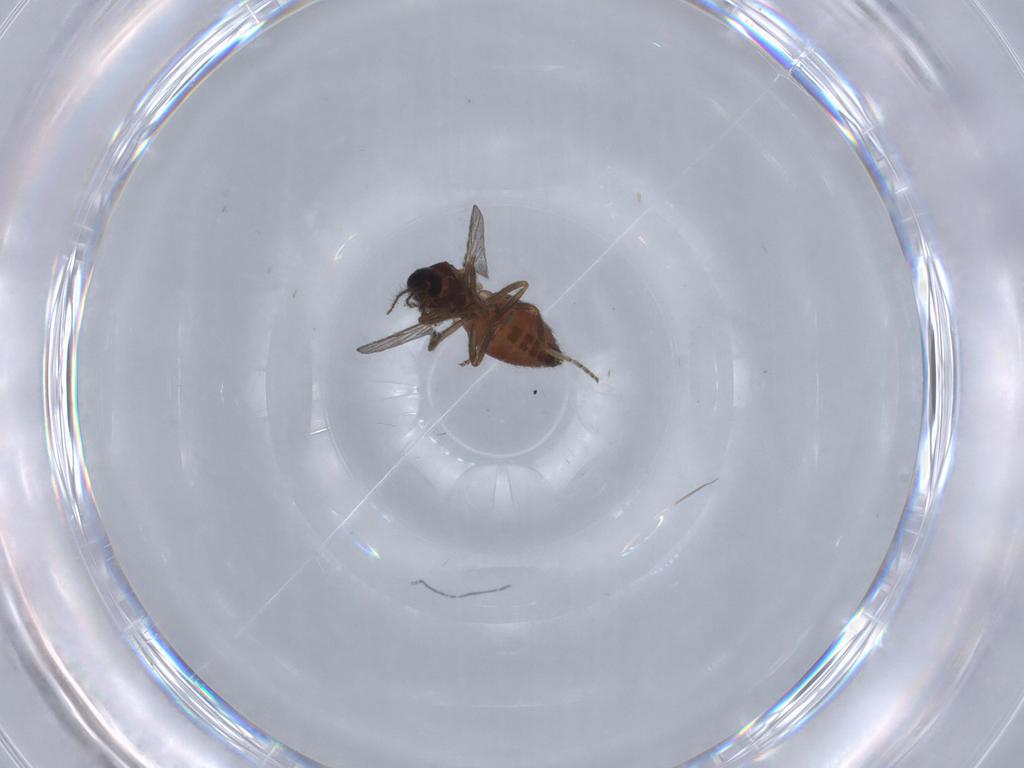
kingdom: Animalia
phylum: Arthropoda
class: Insecta
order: Diptera
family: Ceratopogonidae
